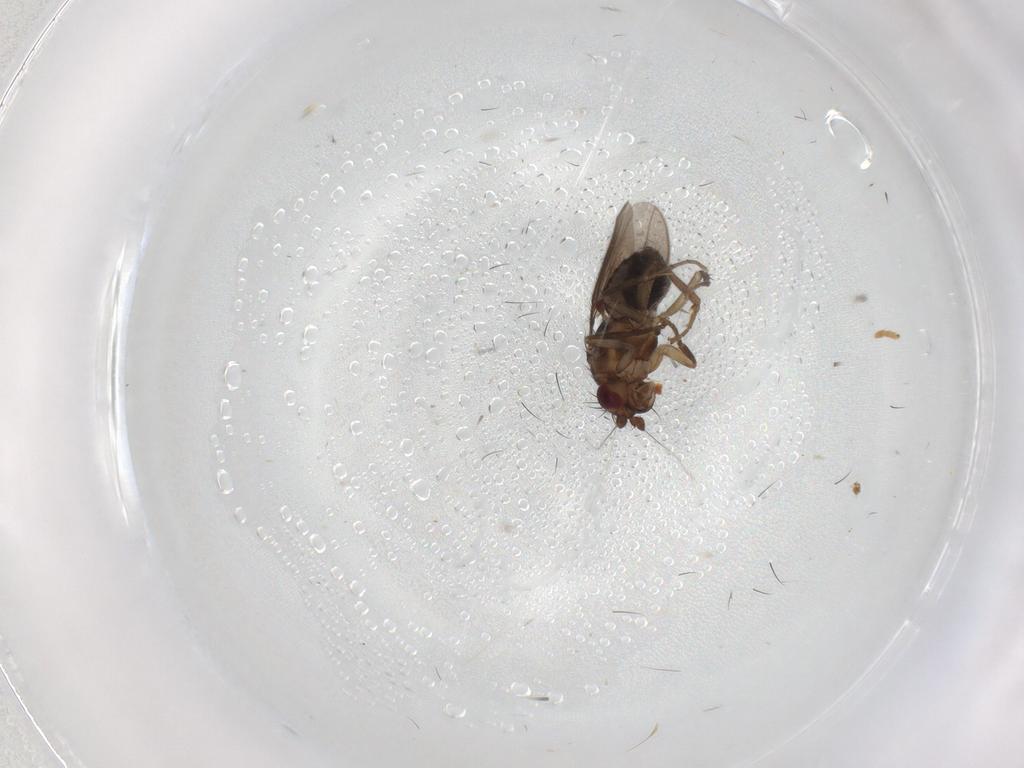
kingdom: Animalia
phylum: Arthropoda
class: Insecta
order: Diptera
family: Sphaeroceridae
